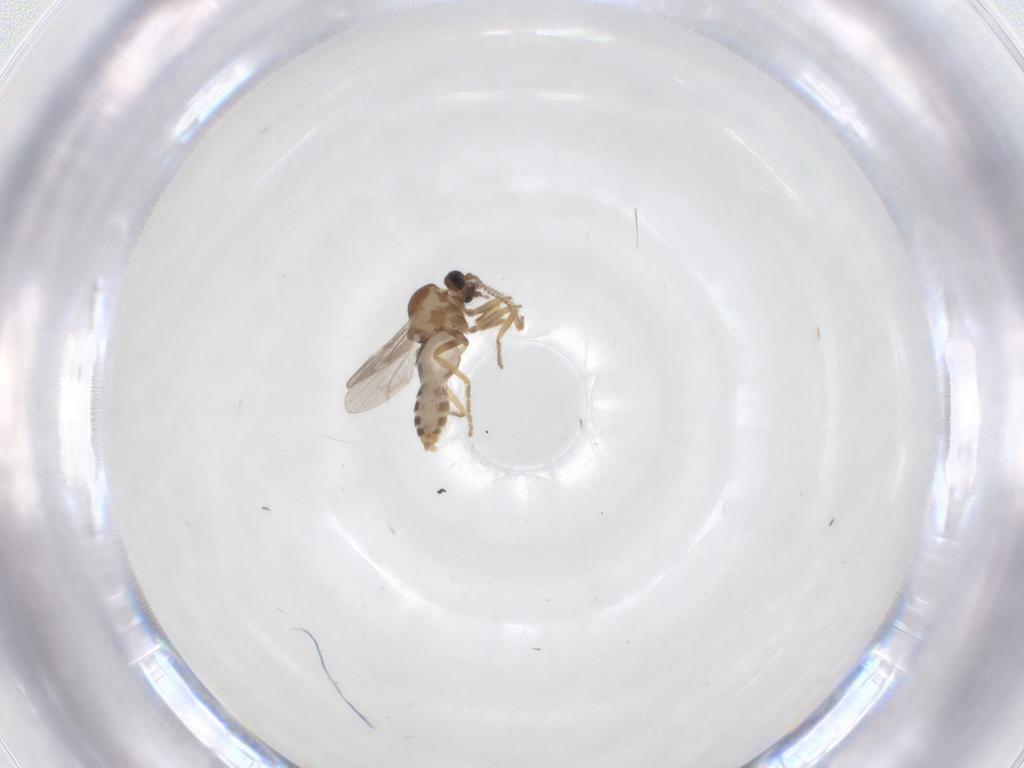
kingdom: Animalia
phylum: Arthropoda
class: Insecta
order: Diptera
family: Ceratopogonidae
